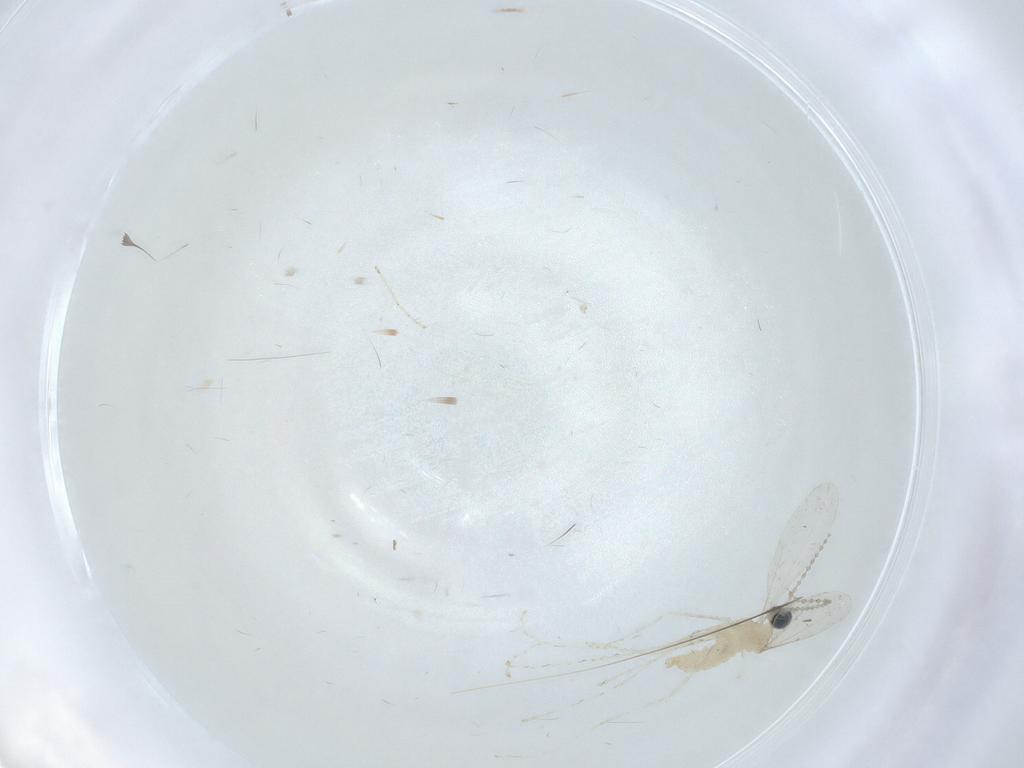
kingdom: Animalia
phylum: Arthropoda
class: Insecta
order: Diptera
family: Cecidomyiidae
